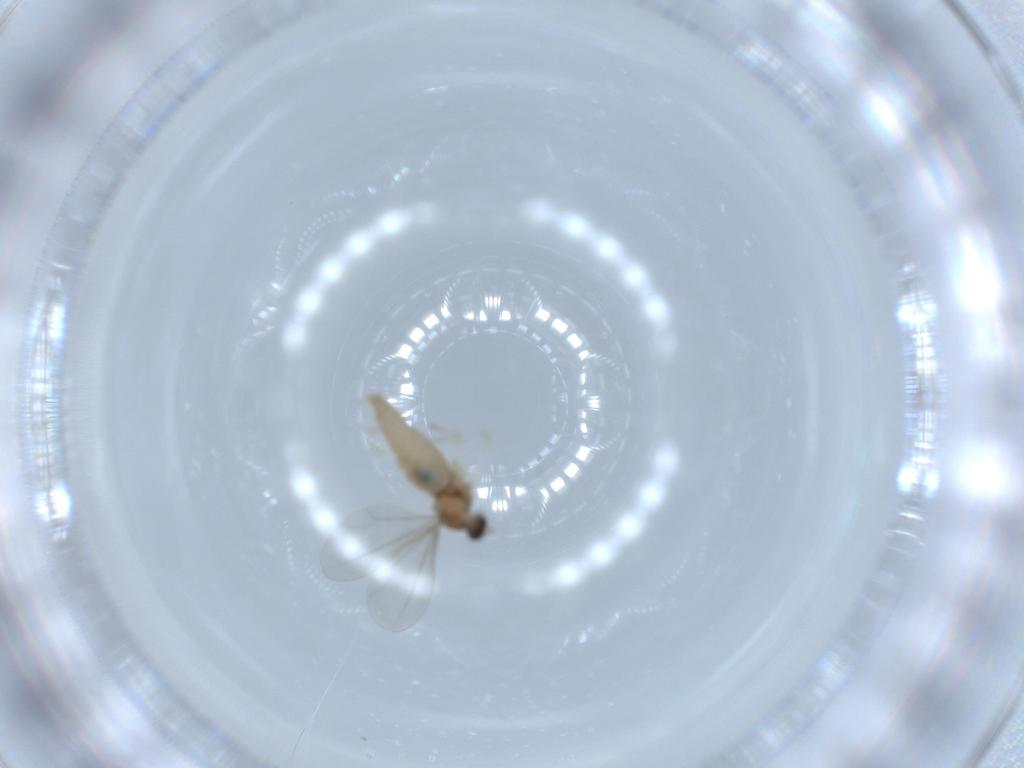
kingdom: Animalia
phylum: Arthropoda
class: Insecta
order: Diptera
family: Cecidomyiidae
